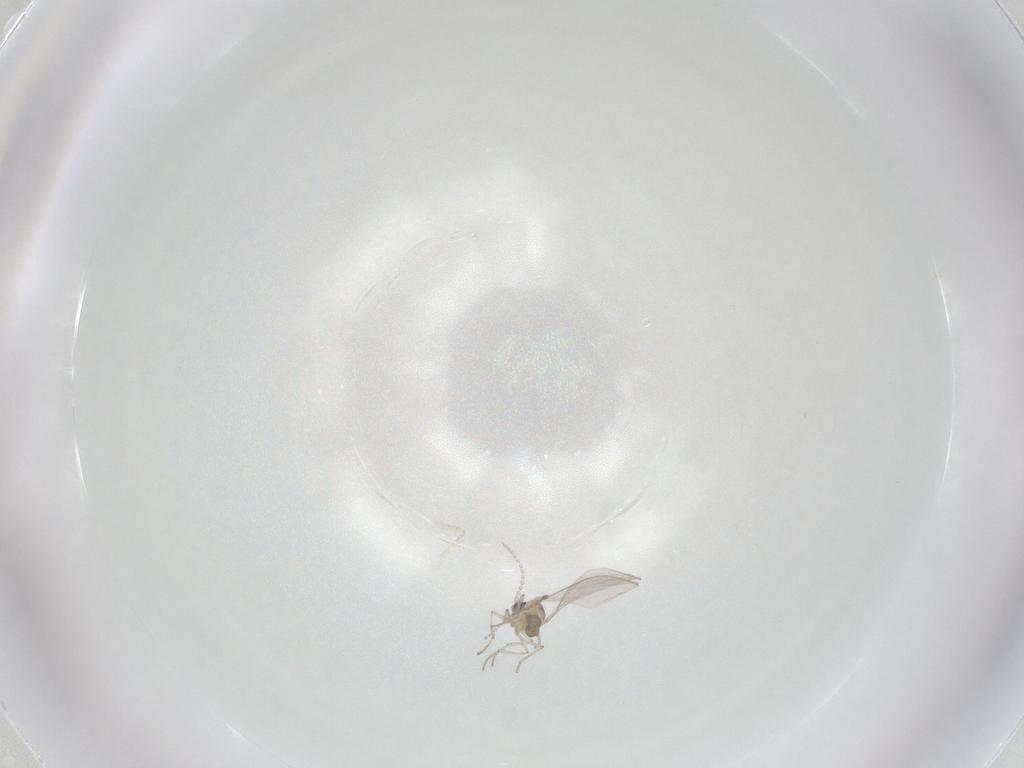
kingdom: Animalia
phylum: Arthropoda
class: Insecta
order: Diptera
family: Cecidomyiidae
